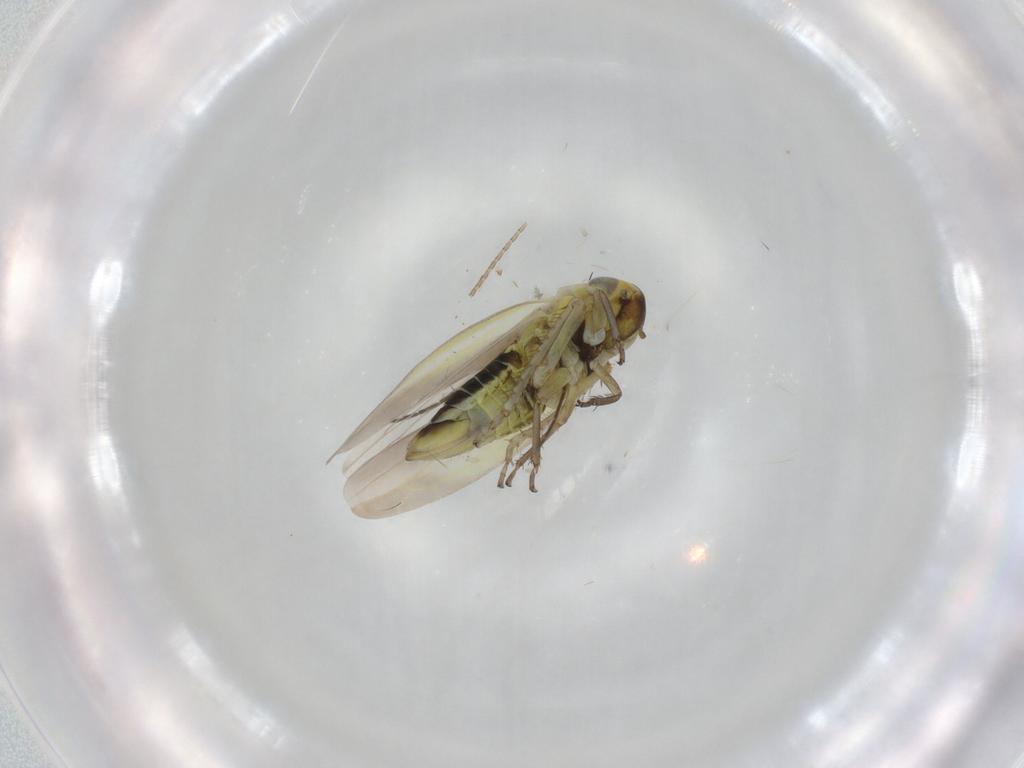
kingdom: Animalia
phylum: Arthropoda
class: Insecta
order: Hemiptera
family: Cicadellidae
